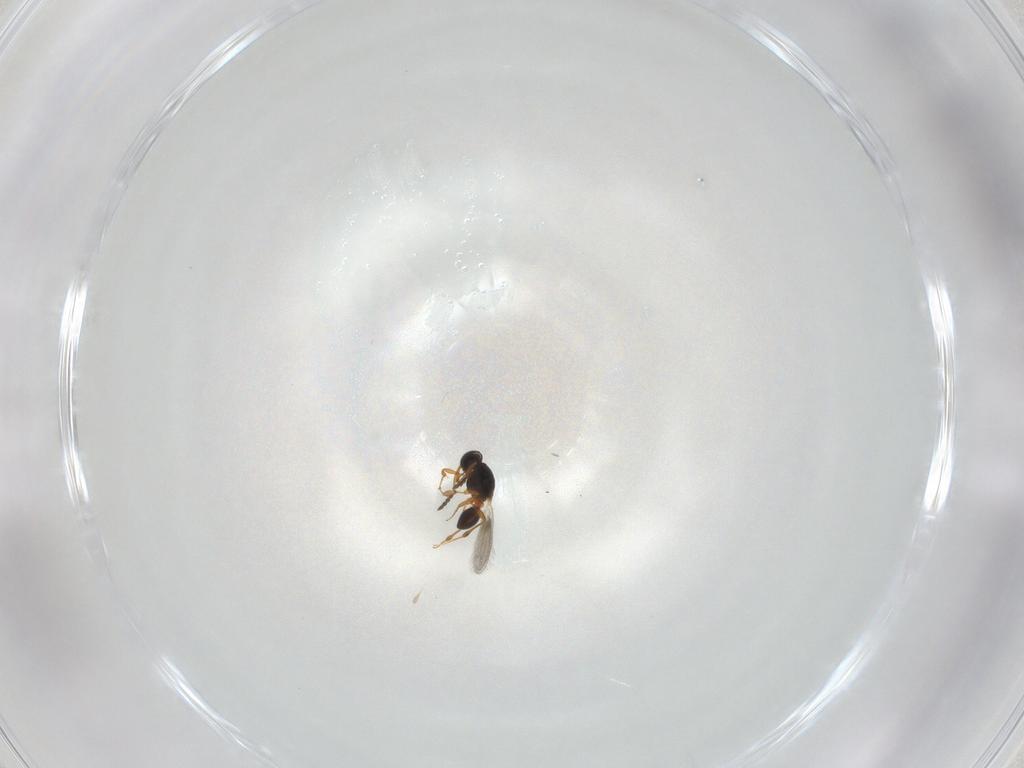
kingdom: Animalia
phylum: Arthropoda
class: Insecta
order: Hymenoptera
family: Platygastridae
